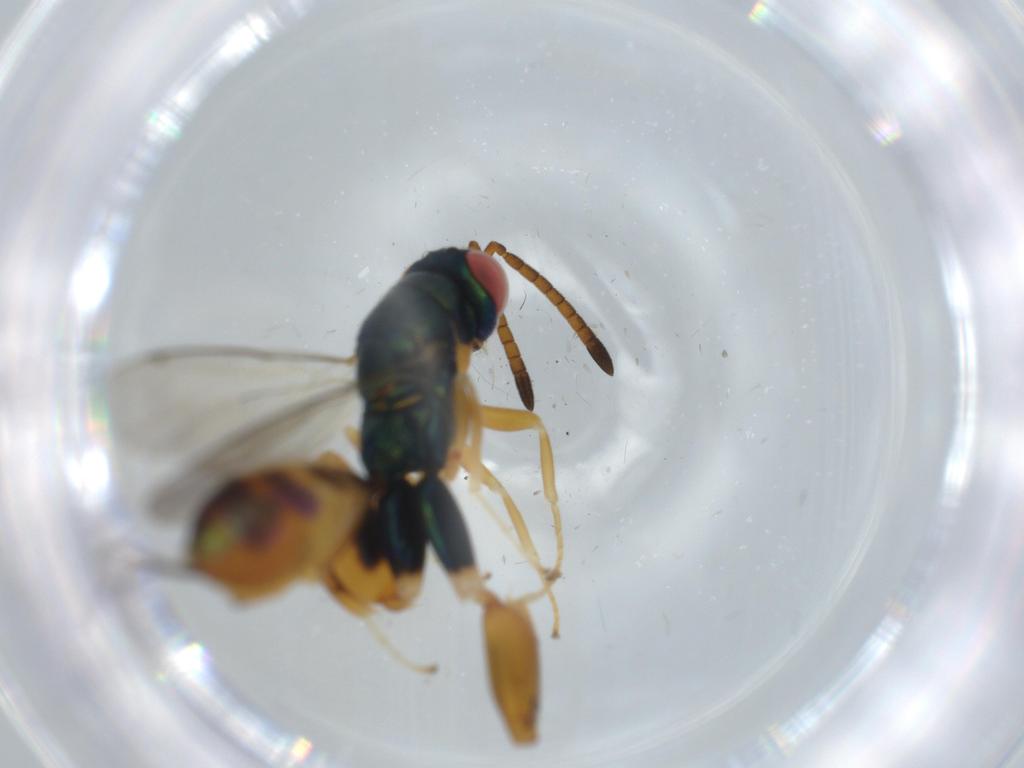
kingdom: Animalia
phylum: Arthropoda
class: Insecta
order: Hymenoptera
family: Torymidae
